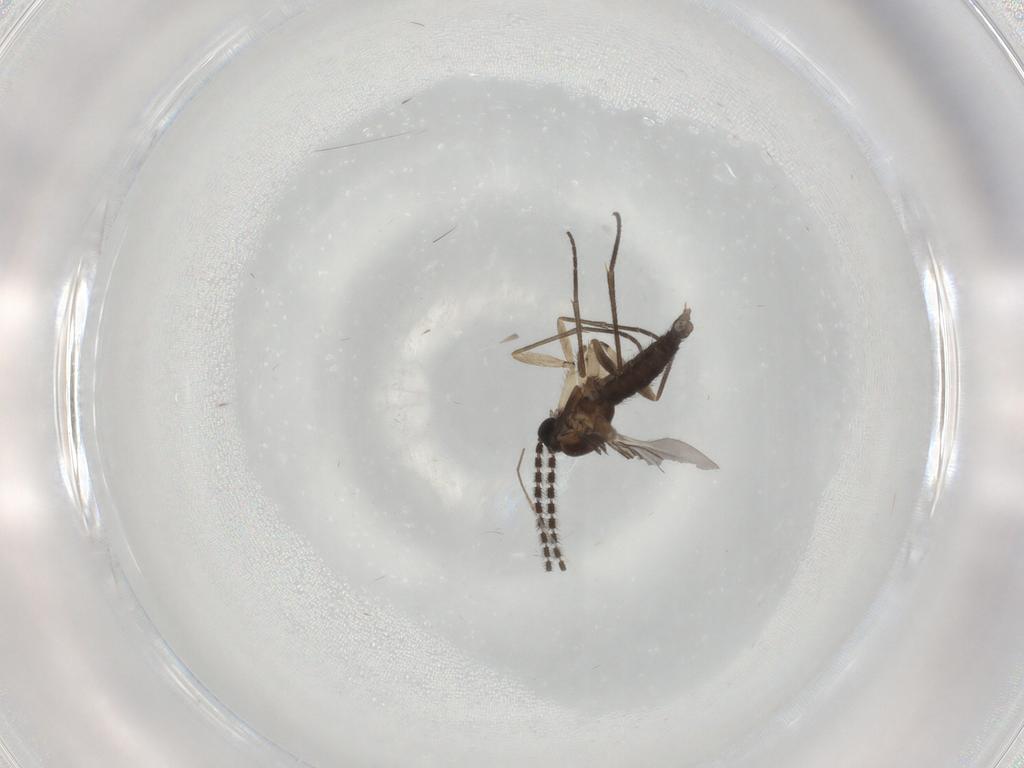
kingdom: Animalia
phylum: Arthropoda
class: Insecta
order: Diptera
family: Sciaridae
